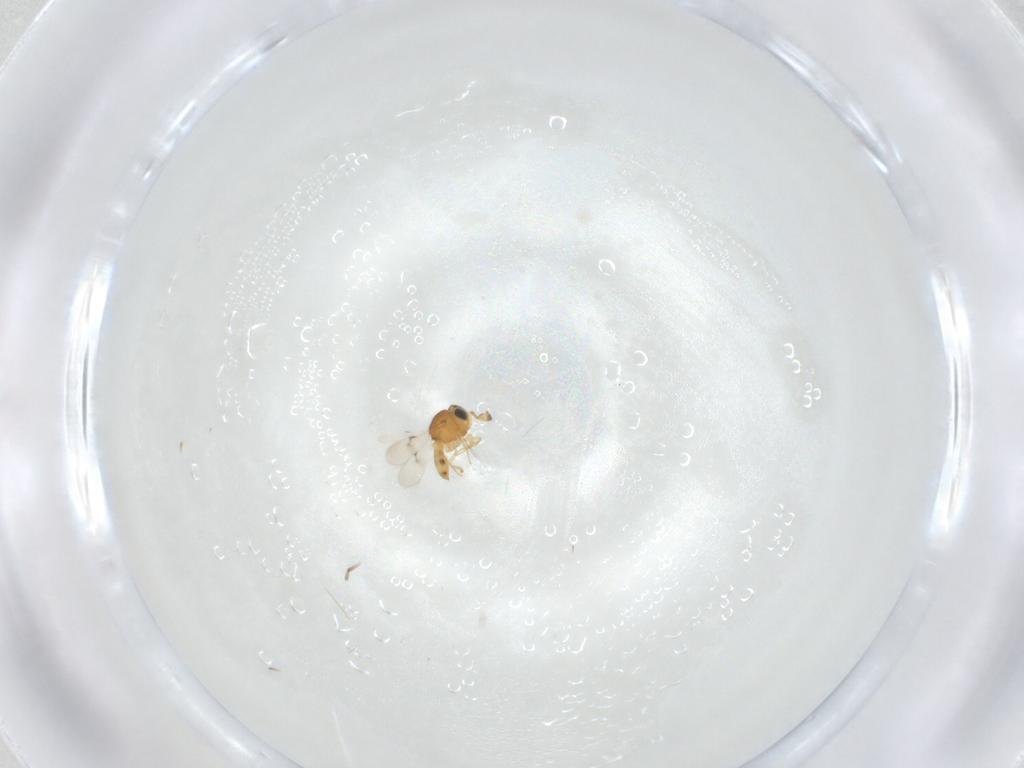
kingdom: Animalia
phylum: Arthropoda
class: Insecta
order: Hymenoptera
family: Scelionidae
